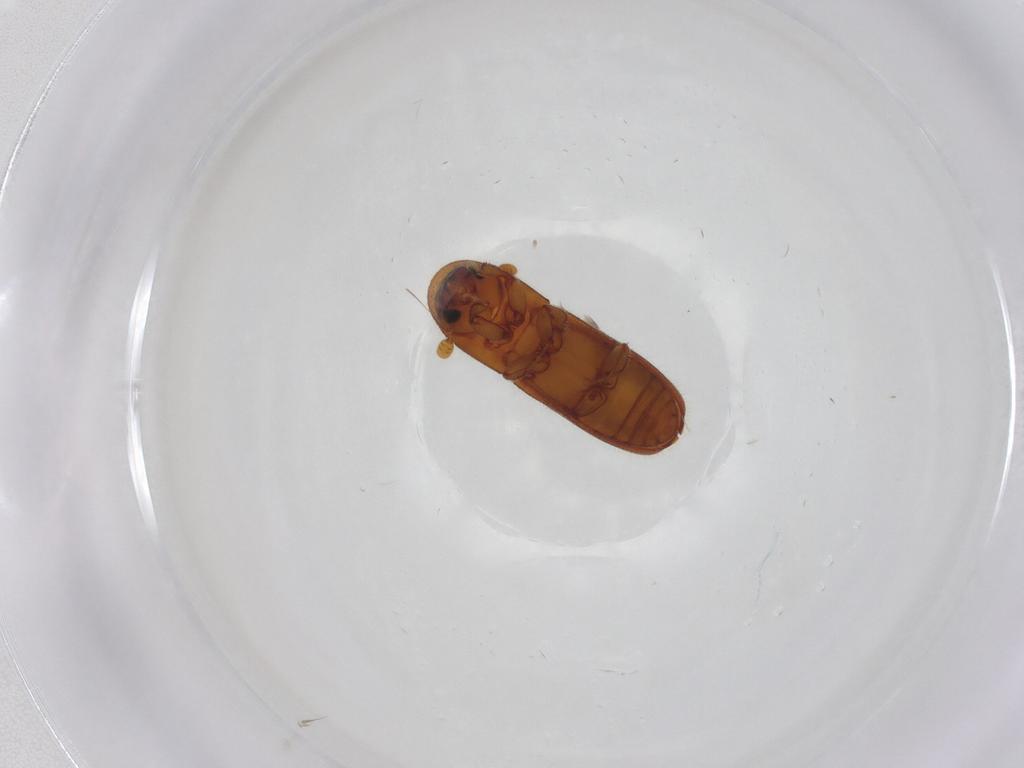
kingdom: Animalia
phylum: Arthropoda
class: Insecta
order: Coleoptera
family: Curculionidae
